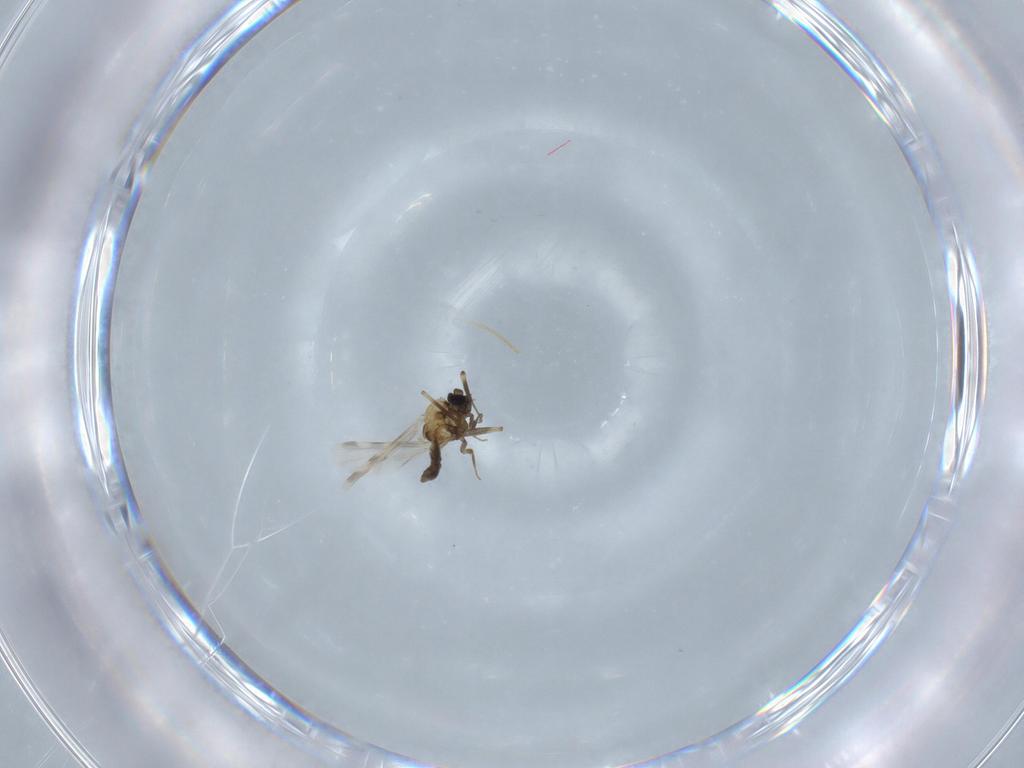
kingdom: Animalia
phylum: Arthropoda
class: Insecta
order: Diptera
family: Ceratopogonidae
